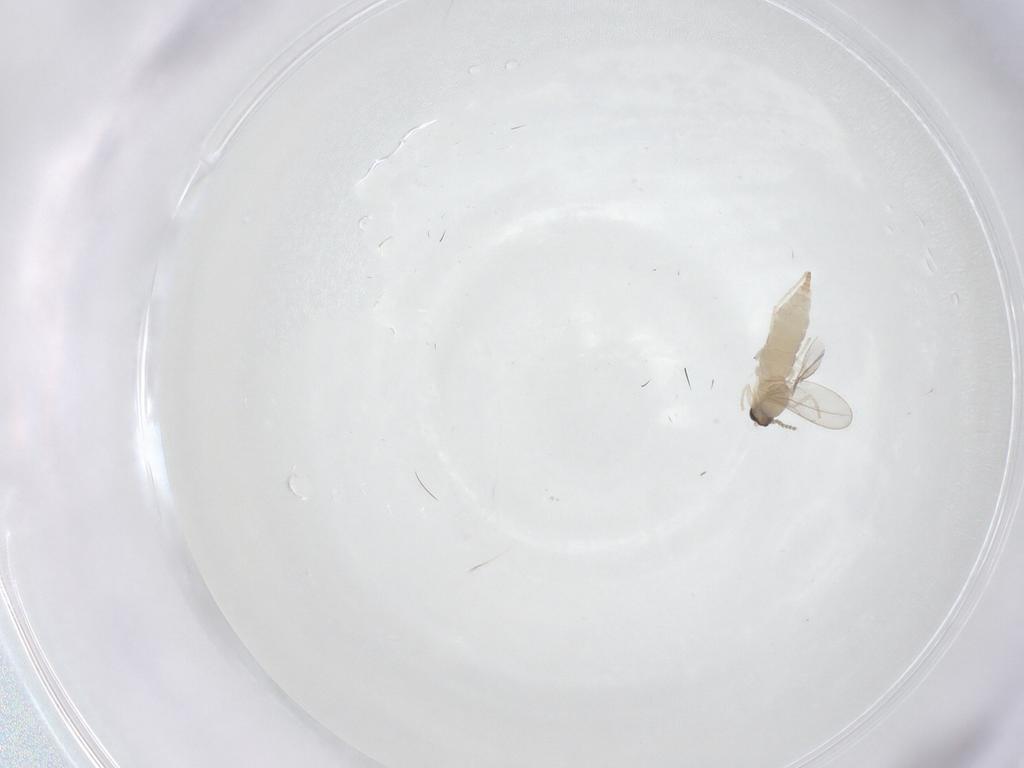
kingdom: Animalia
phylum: Arthropoda
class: Insecta
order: Diptera
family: Cecidomyiidae
